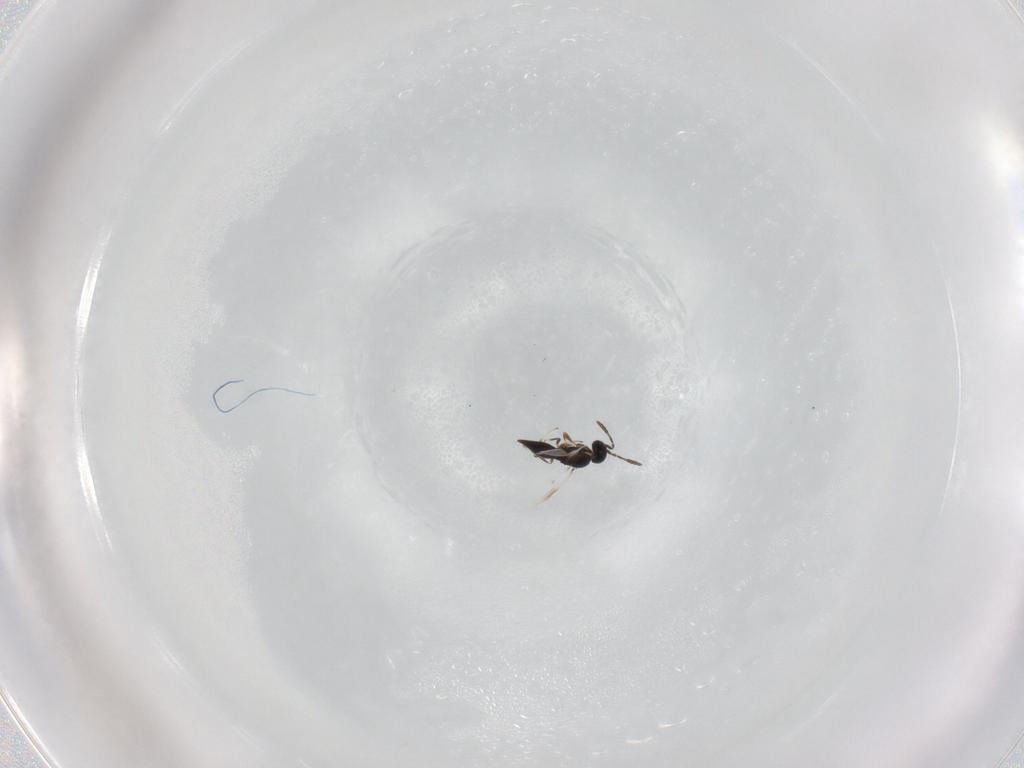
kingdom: Animalia
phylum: Arthropoda
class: Insecta
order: Hymenoptera
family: Scelionidae
